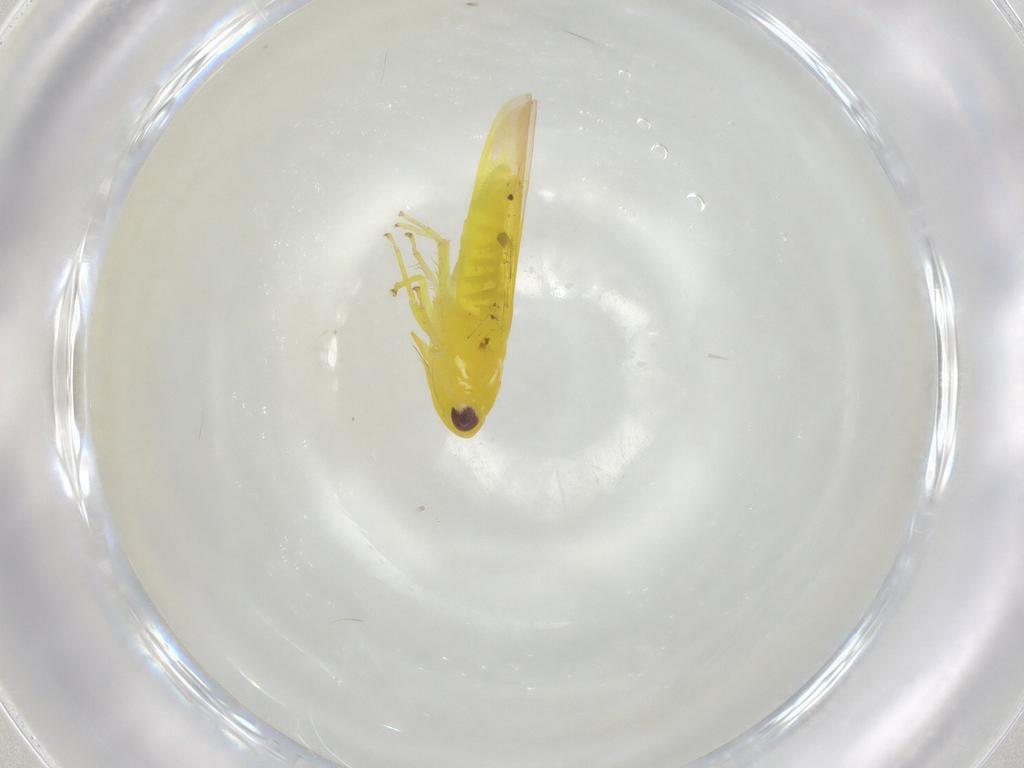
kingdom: Animalia
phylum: Arthropoda
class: Insecta
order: Hemiptera
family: Cicadellidae
